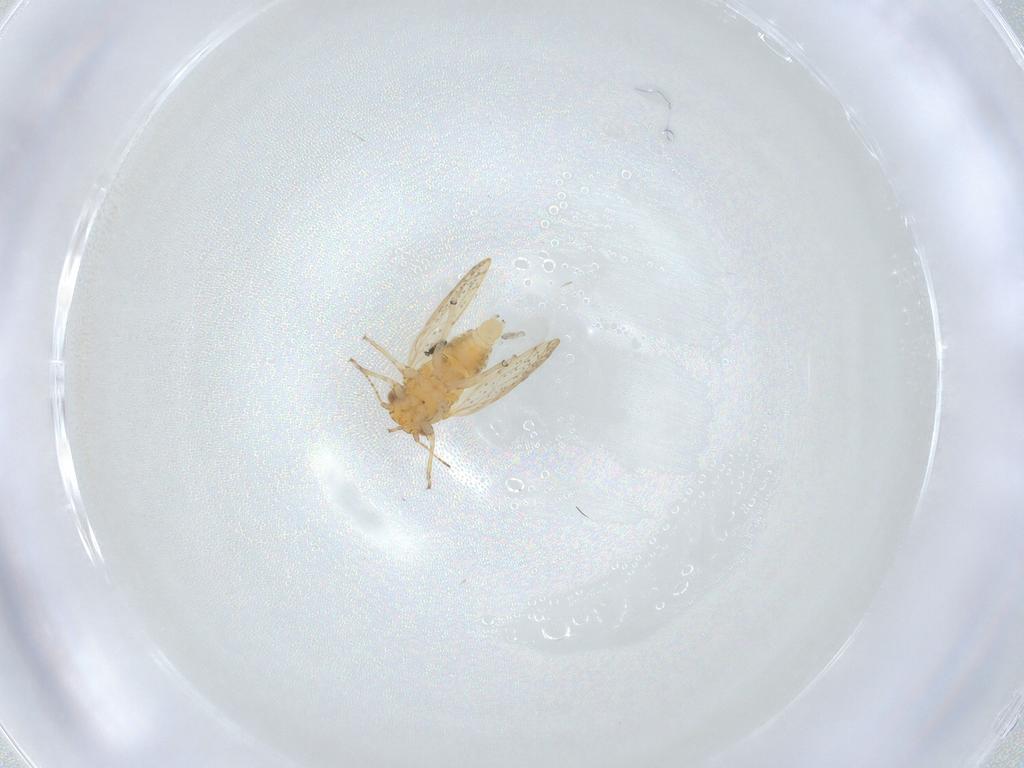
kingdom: Animalia
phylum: Arthropoda
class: Insecta
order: Psocodea
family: Caeciliusidae
